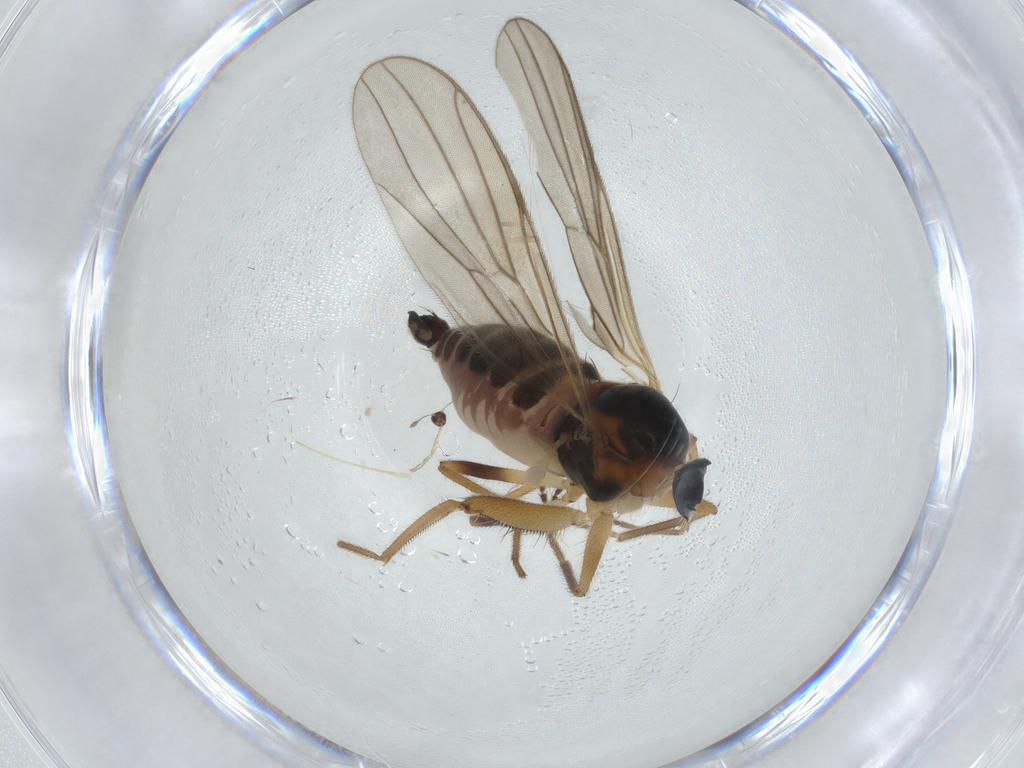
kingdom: Animalia
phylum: Arthropoda
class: Insecta
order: Diptera
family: Hybotidae
